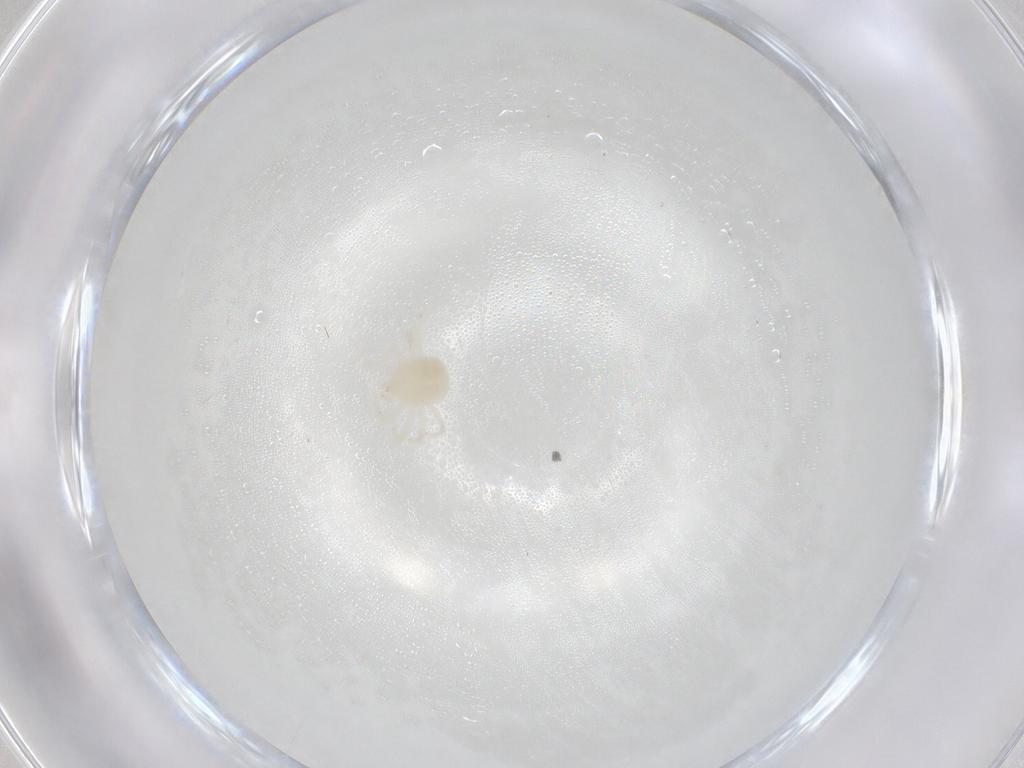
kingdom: Animalia
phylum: Arthropoda
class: Arachnida
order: Trombidiformes
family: Anystidae
